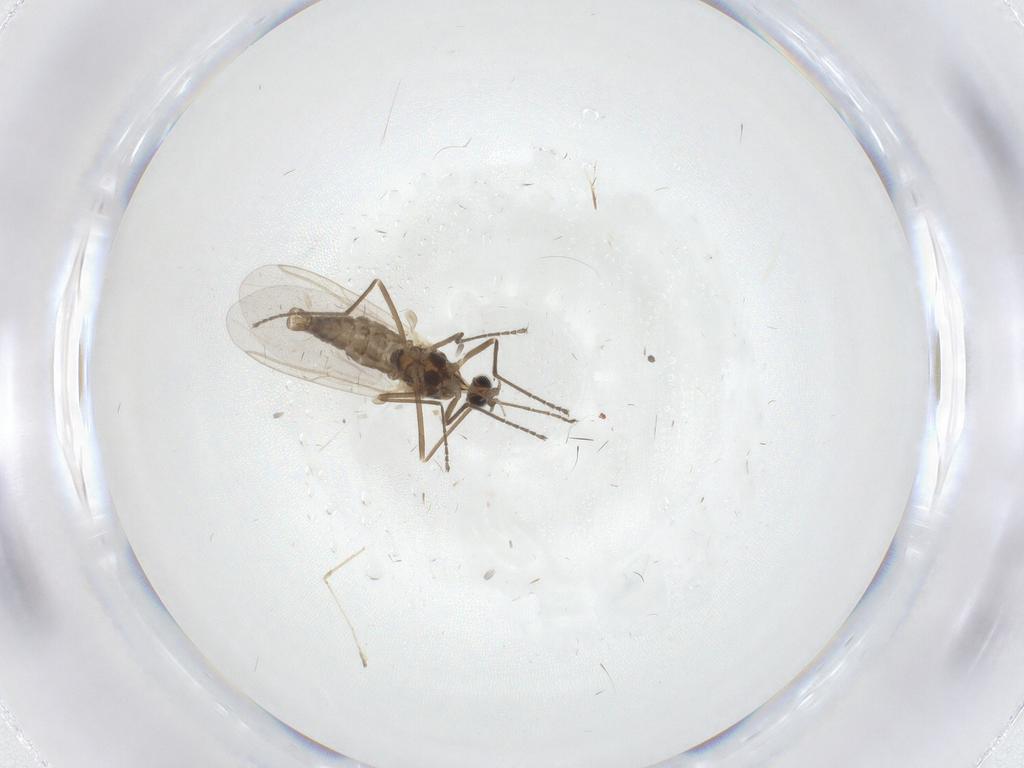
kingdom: Animalia
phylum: Arthropoda
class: Insecta
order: Diptera
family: Cecidomyiidae
